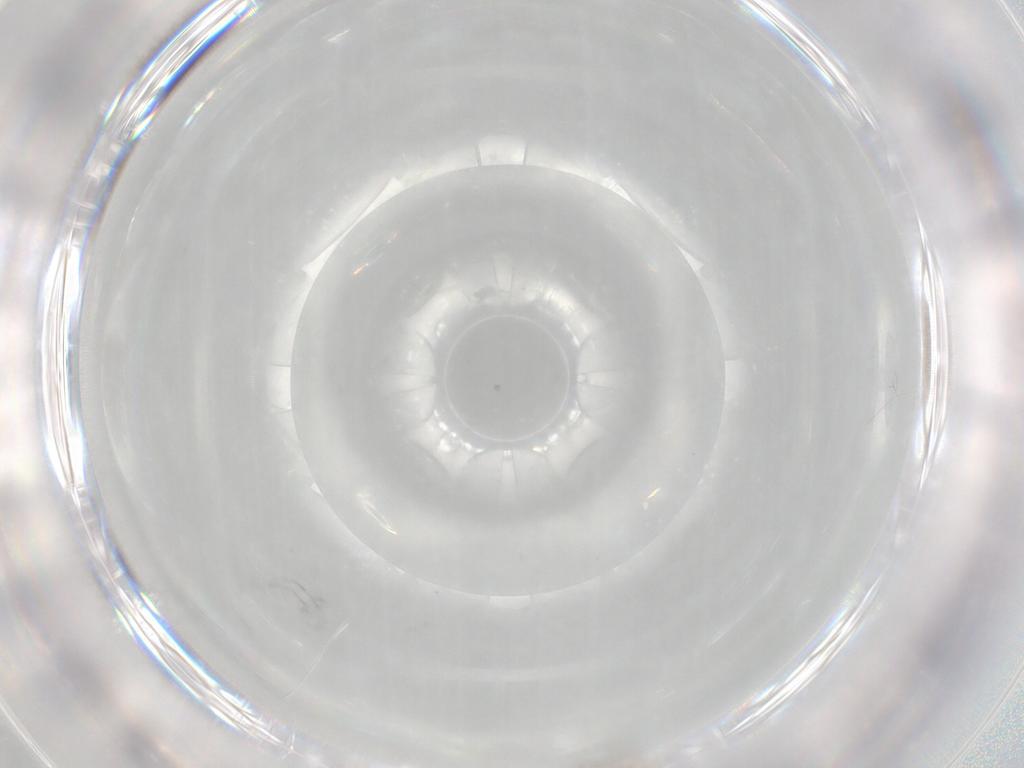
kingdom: Animalia
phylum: Arthropoda
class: Insecta
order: Diptera
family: Cecidomyiidae
